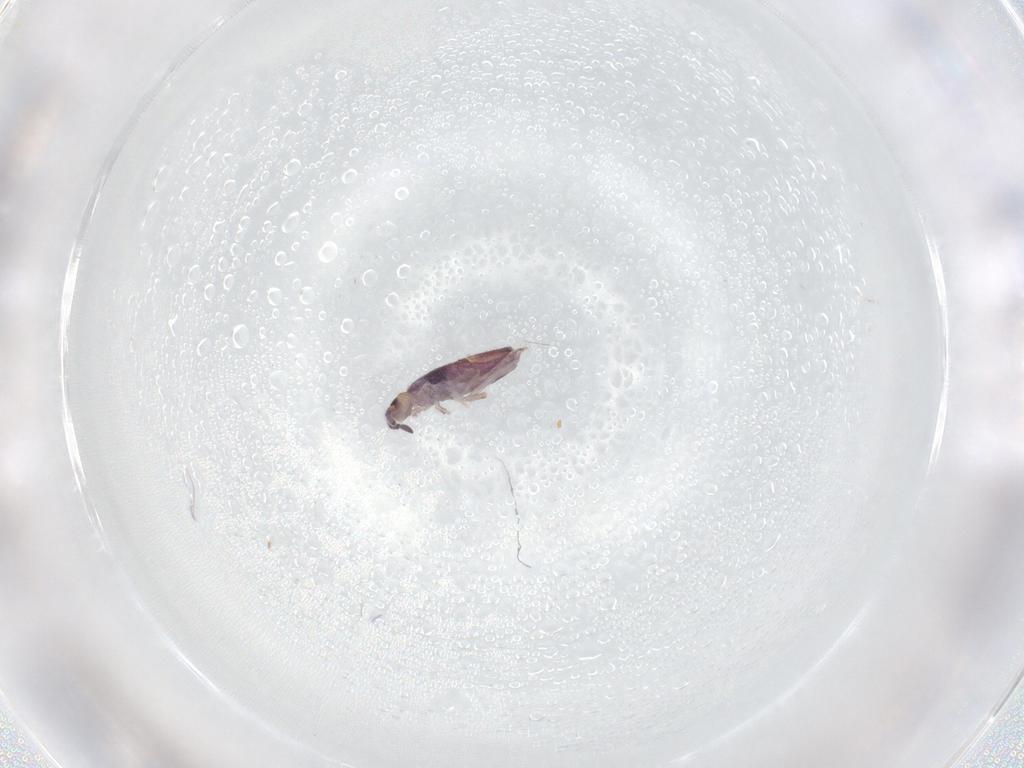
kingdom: Animalia
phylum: Arthropoda
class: Collembola
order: Entomobryomorpha
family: Entomobryidae
